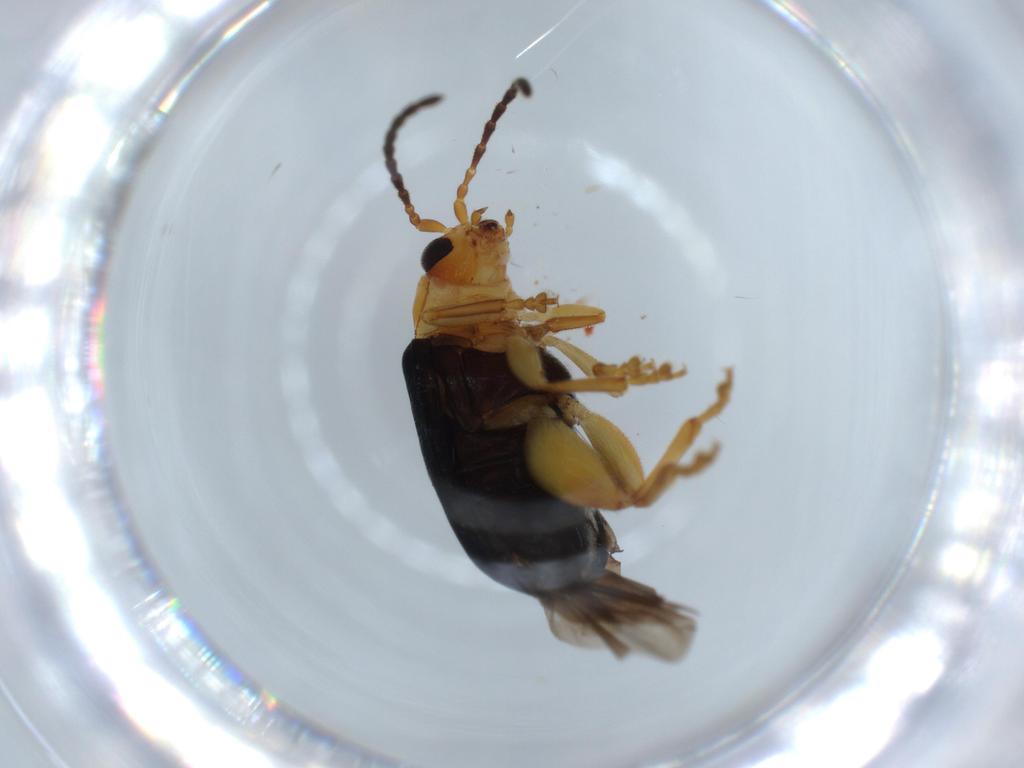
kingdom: Animalia
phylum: Arthropoda
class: Insecta
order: Coleoptera
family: Chrysomelidae
